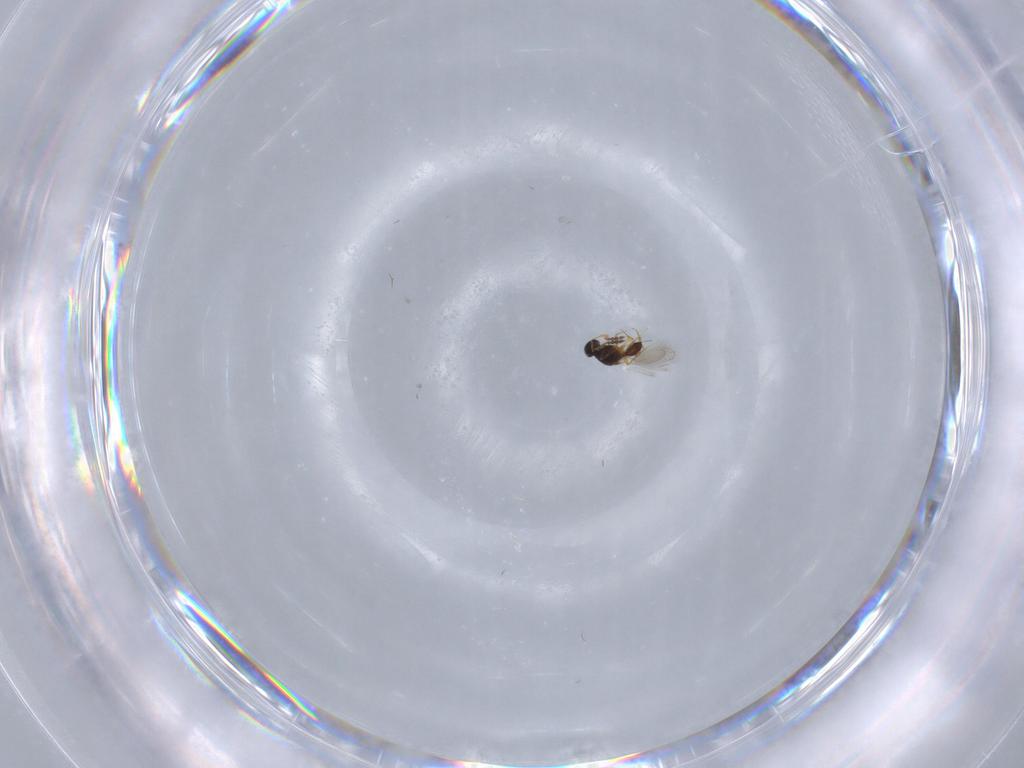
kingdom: Animalia
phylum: Arthropoda
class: Insecta
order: Hymenoptera
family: Platygastridae
